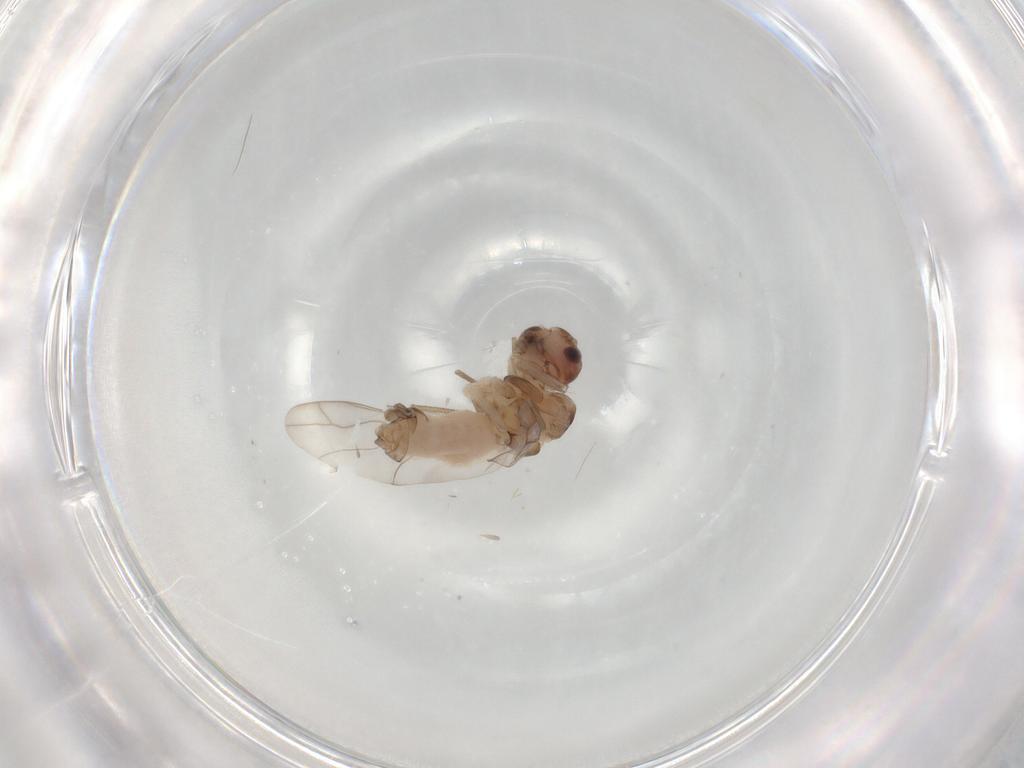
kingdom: Animalia
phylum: Arthropoda
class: Insecta
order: Psocodea
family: Peripsocidae
